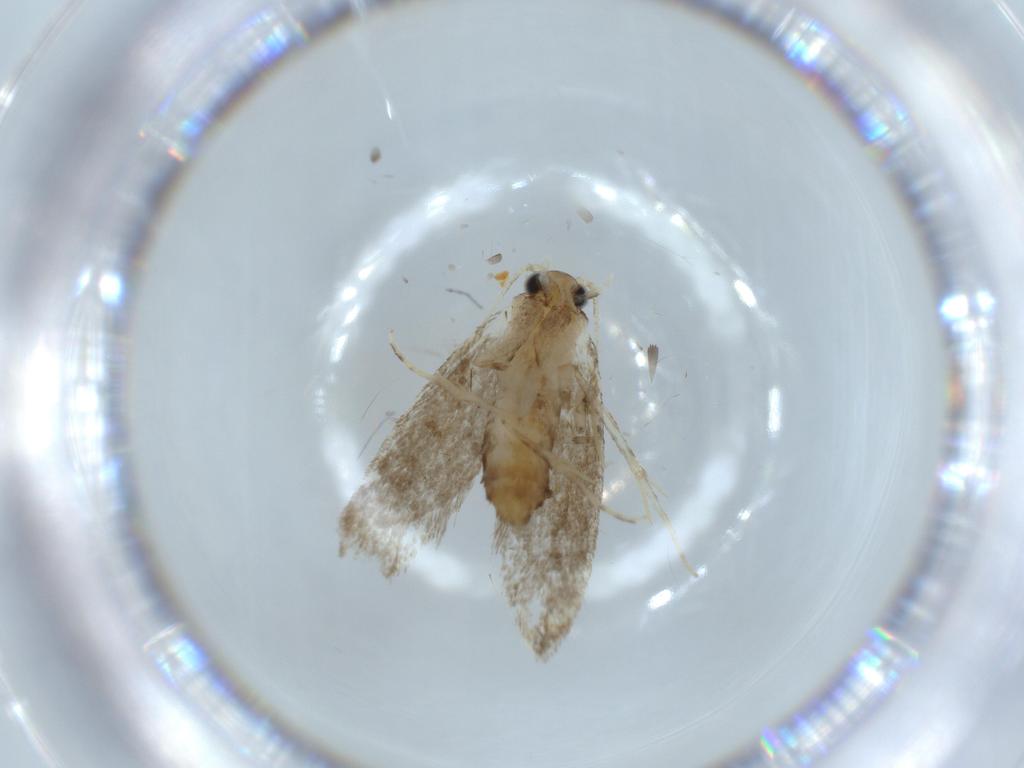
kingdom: Animalia
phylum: Arthropoda
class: Insecta
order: Lepidoptera
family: Tineidae
